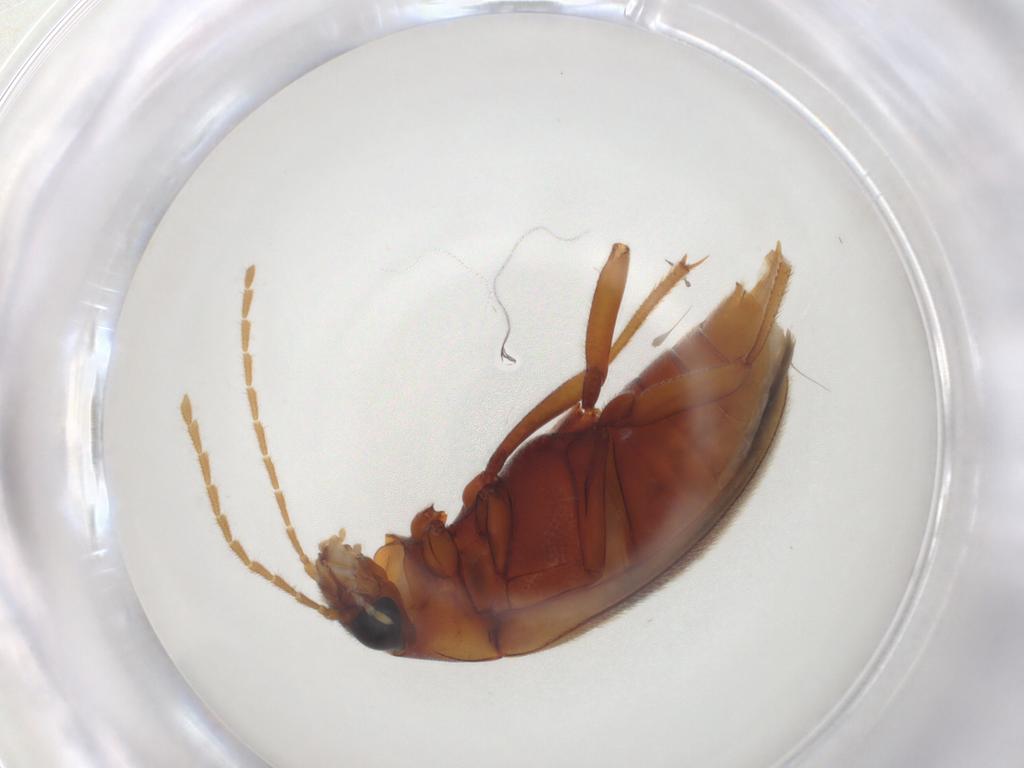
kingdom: Animalia
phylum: Arthropoda
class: Insecta
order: Coleoptera
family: Ptilodactylidae
